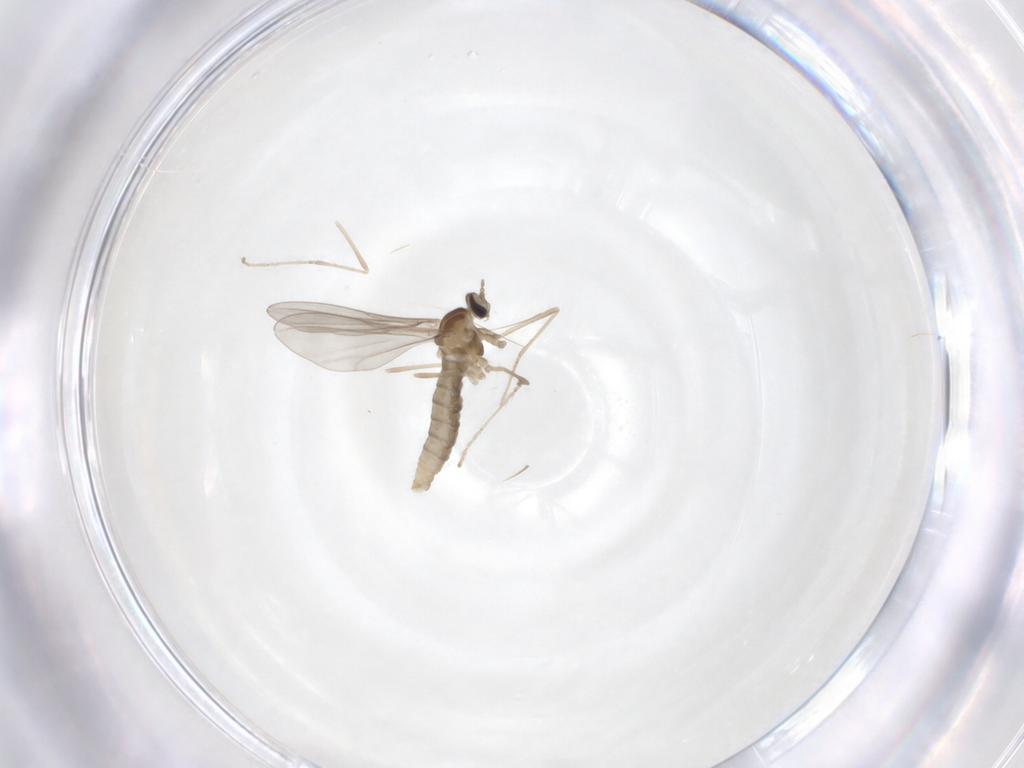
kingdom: Animalia
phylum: Arthropoda
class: Insecta
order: Diptera
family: Cecidomyiidae
